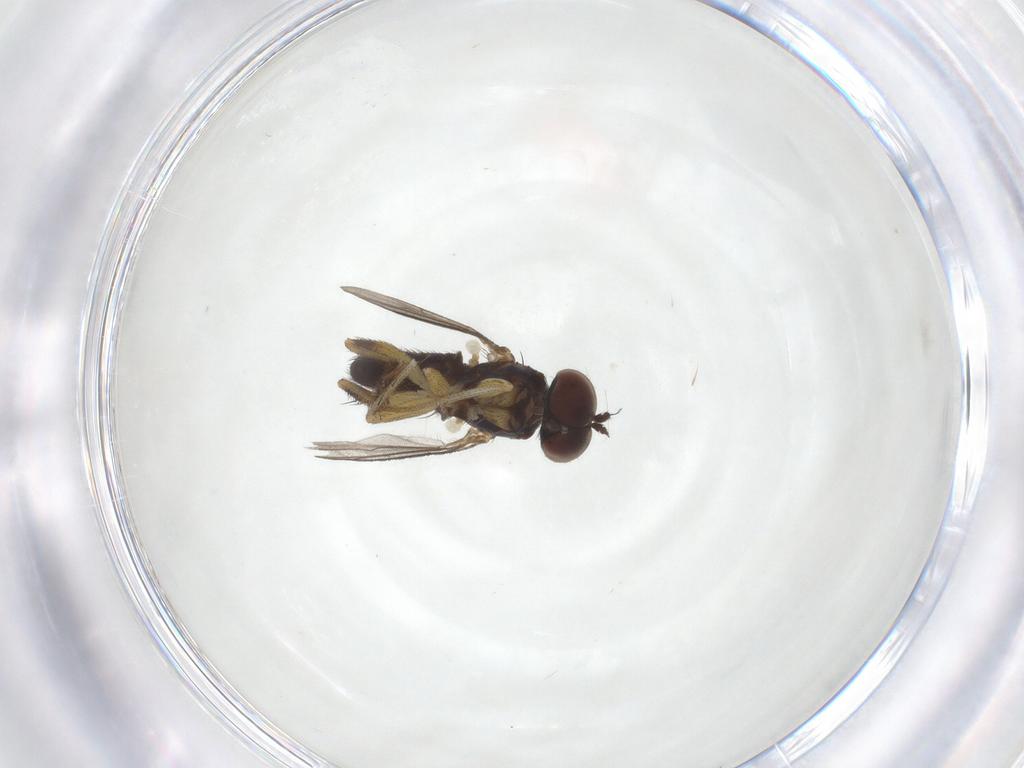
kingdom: Animalia
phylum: Arthropoda
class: Insecta
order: Diptera
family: Dolichopodidae
